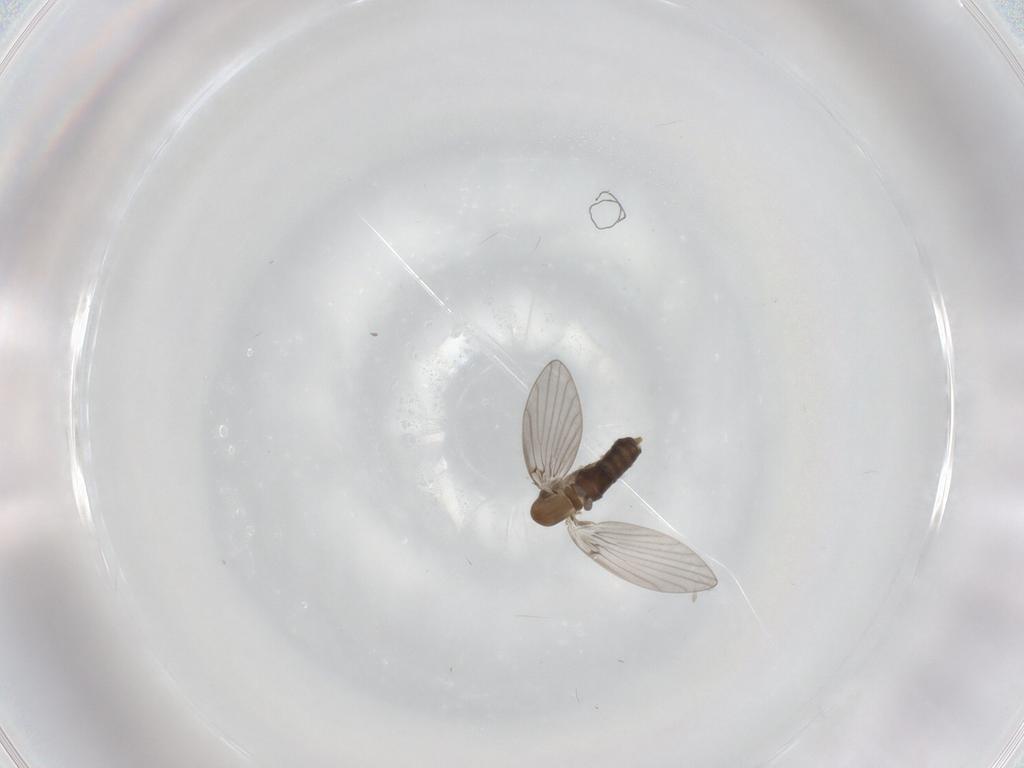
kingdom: Animalia
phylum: Arthropoda
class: Insecta
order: Diptera
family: Psychodidae
